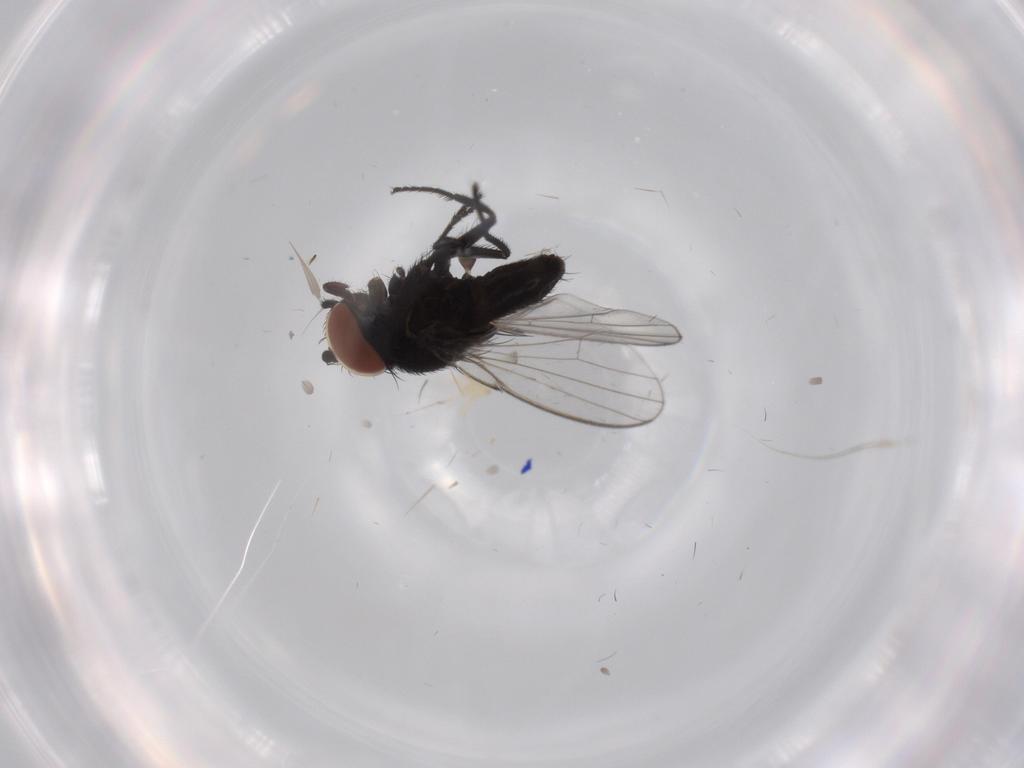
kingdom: Animalia
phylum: Arthropoda
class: Insecta
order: Diptera
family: Milichiidae
